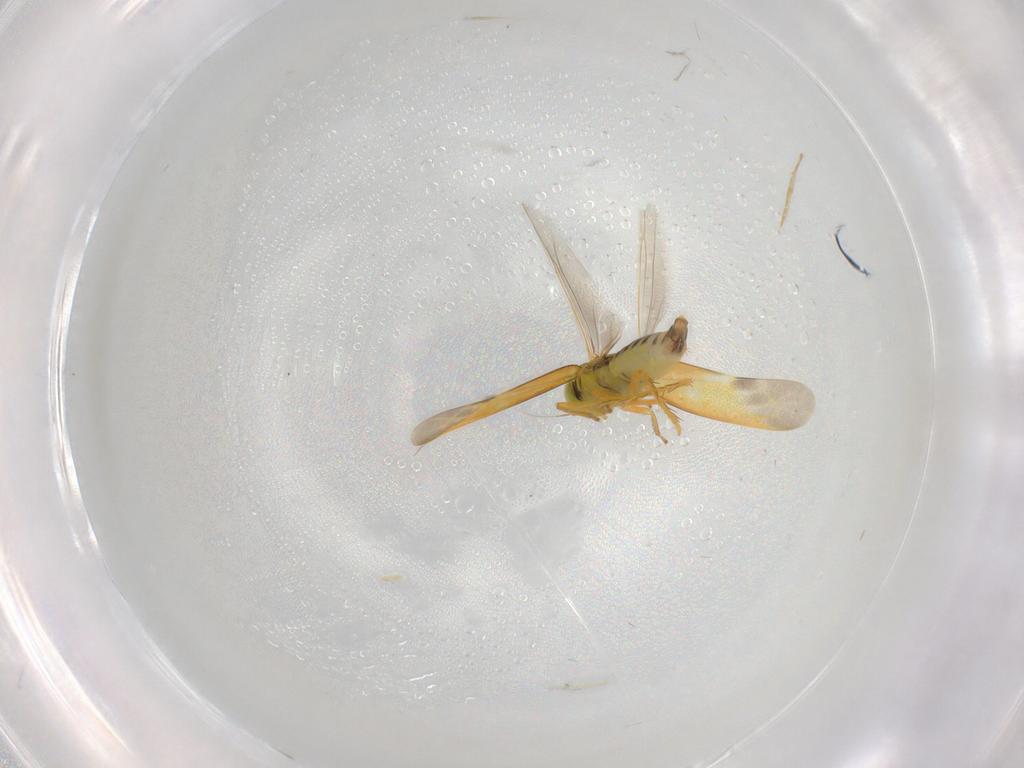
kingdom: Animalia
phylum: Arthropoda
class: Insecta
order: Hemiptera
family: Cicadellidae
